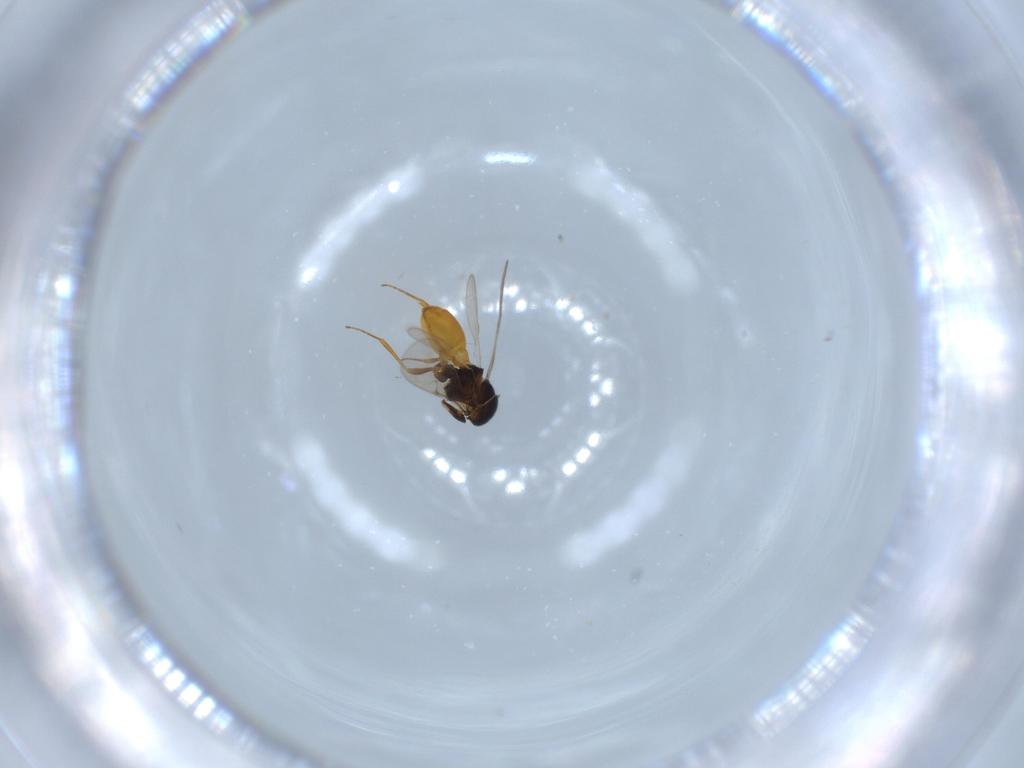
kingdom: Animalia
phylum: Arthropoda
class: Insecta
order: Hymenoptera
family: Scelionidae
